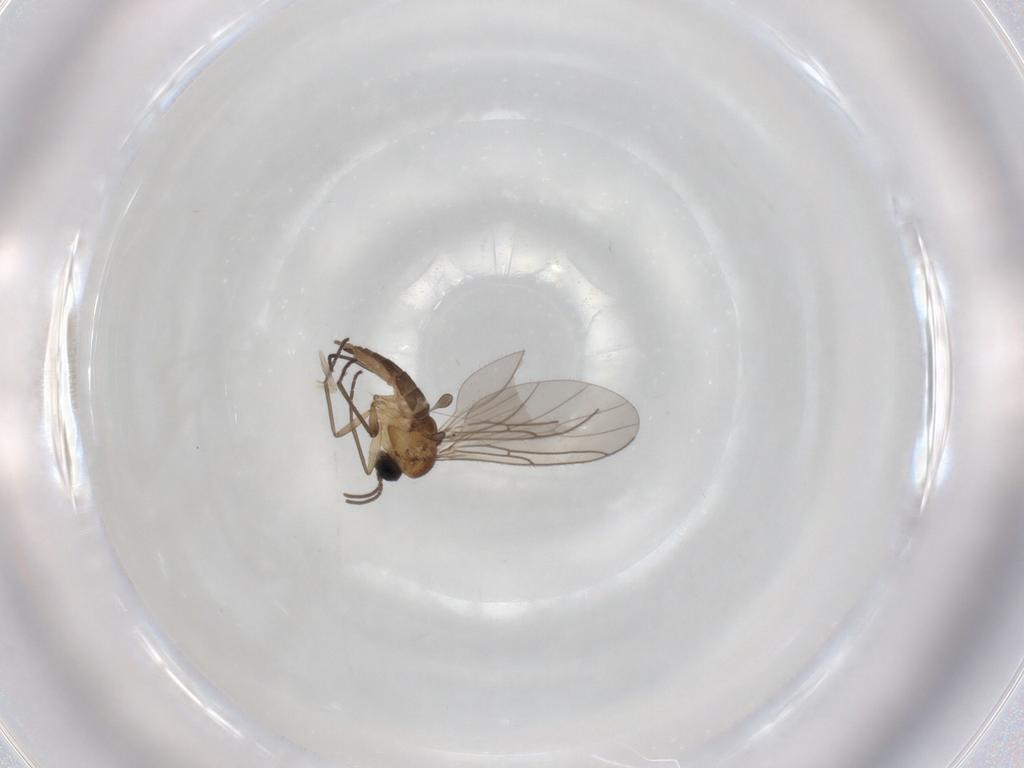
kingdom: Animalia
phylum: Arthropoda
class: Insecta
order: Diptera
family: Sciaridae
